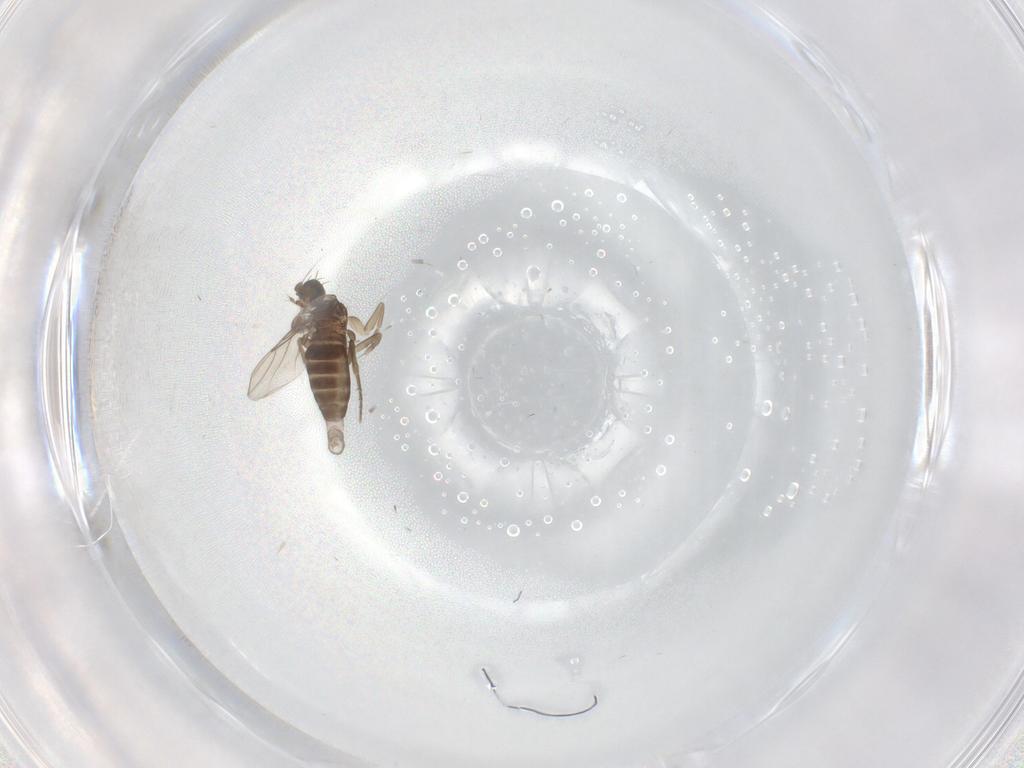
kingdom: Animalia
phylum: Arthropoda
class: Insecta
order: Diptera
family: Phoridae
